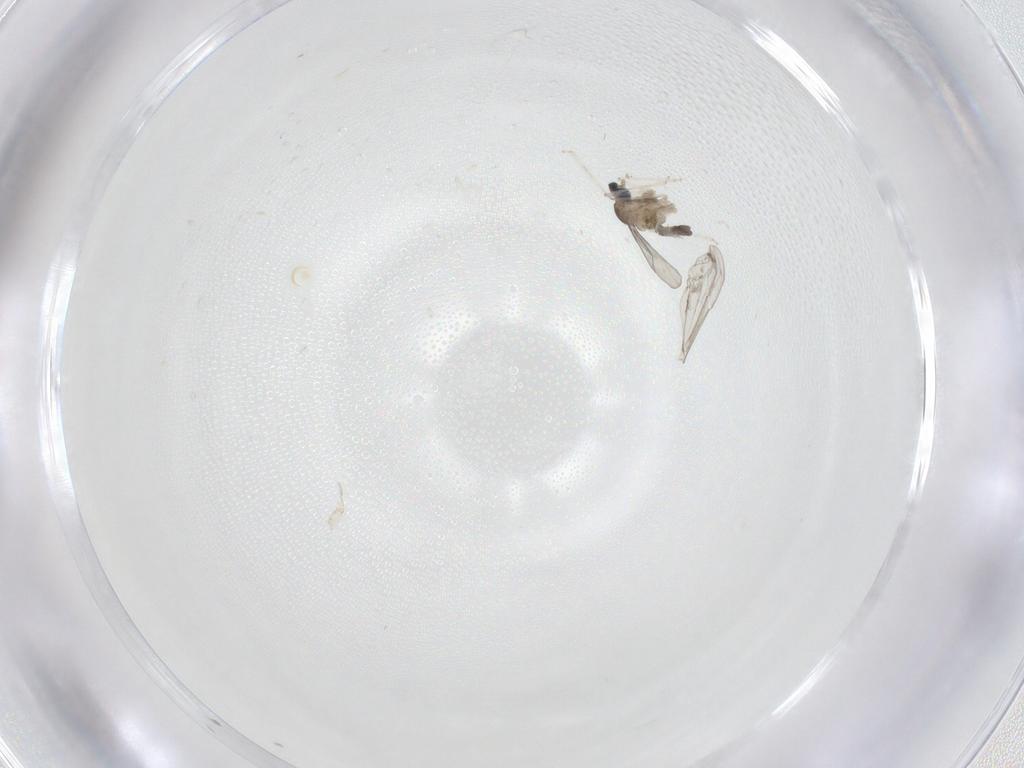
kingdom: Animalia
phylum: Arthropoda
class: Insecta
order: Diptera
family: Cecidomyiidae
